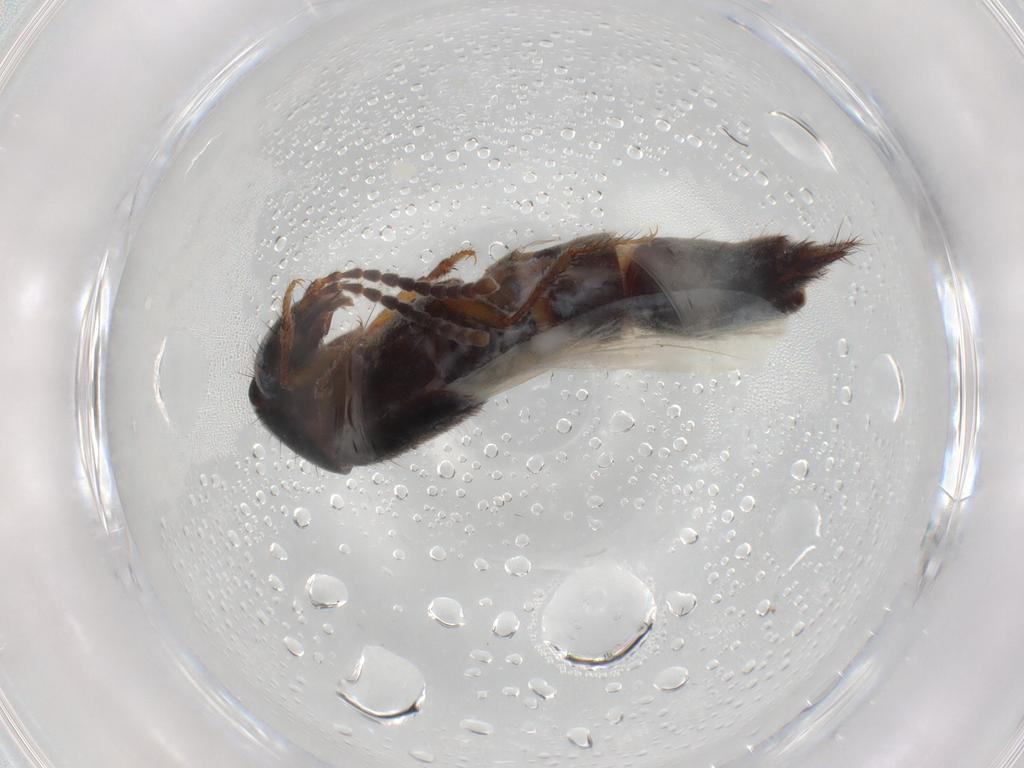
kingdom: Animalia
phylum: Arthropoda
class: Insecta
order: Coleoptera
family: Staphylinidae
